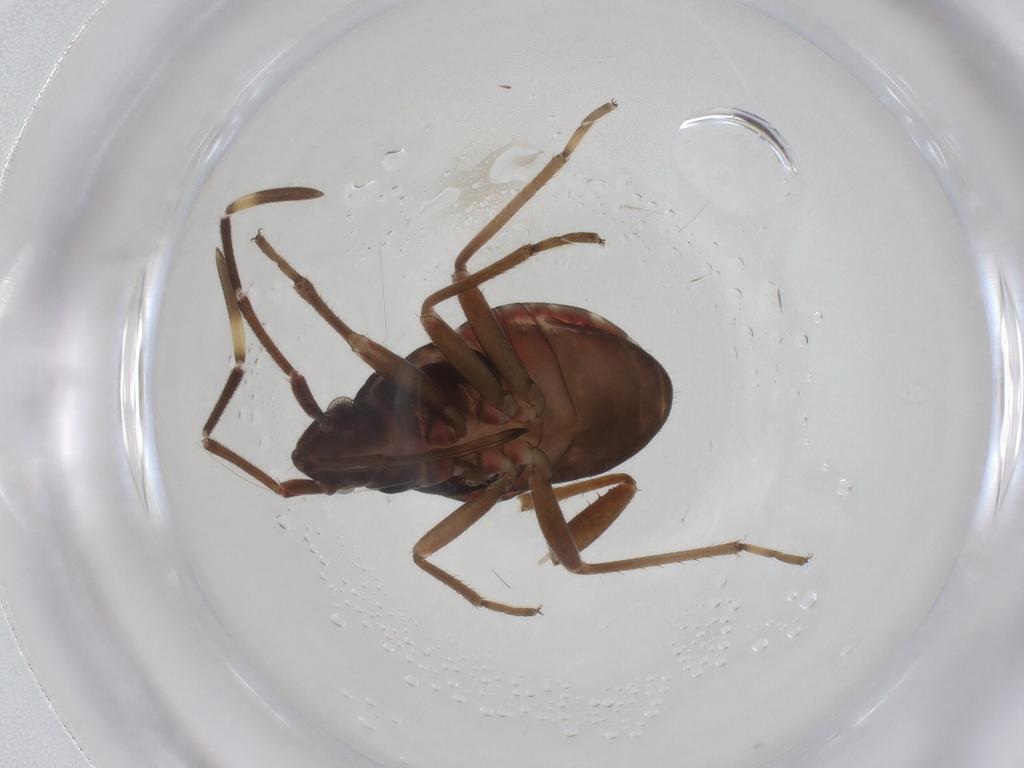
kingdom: Animalia
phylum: Arthropoda
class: Insecta
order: Hemiptera
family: Rhyparochromidae
